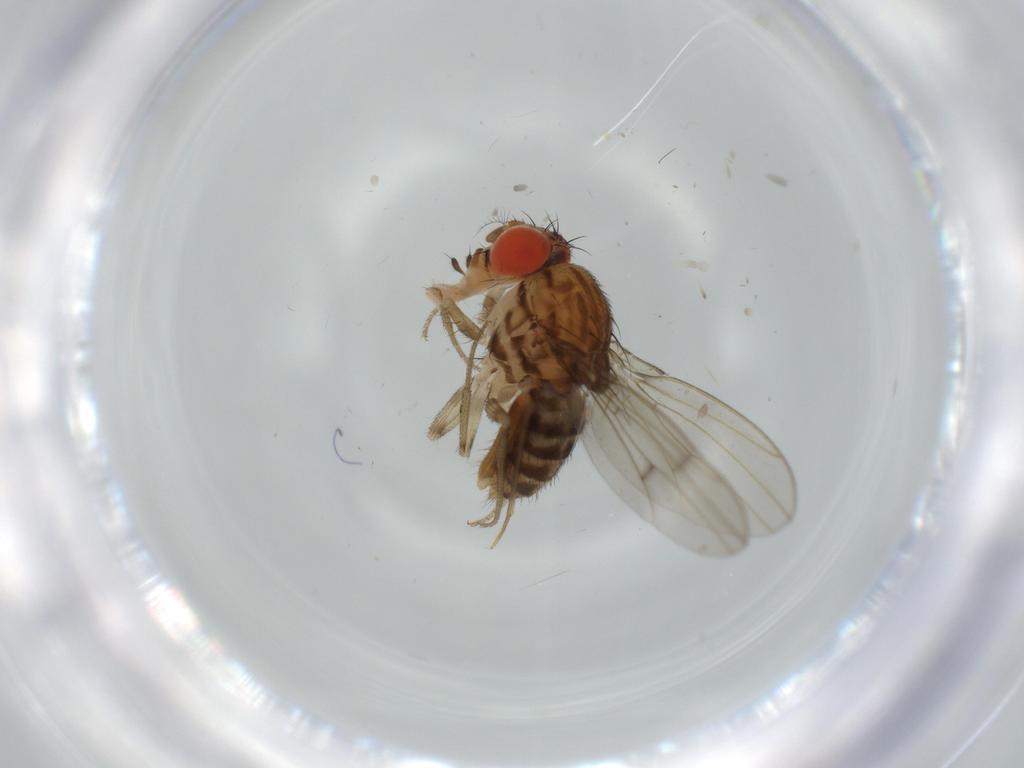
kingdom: Animalia
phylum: Arthropoda
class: Insecta
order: Diptera
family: Drosophilidae
